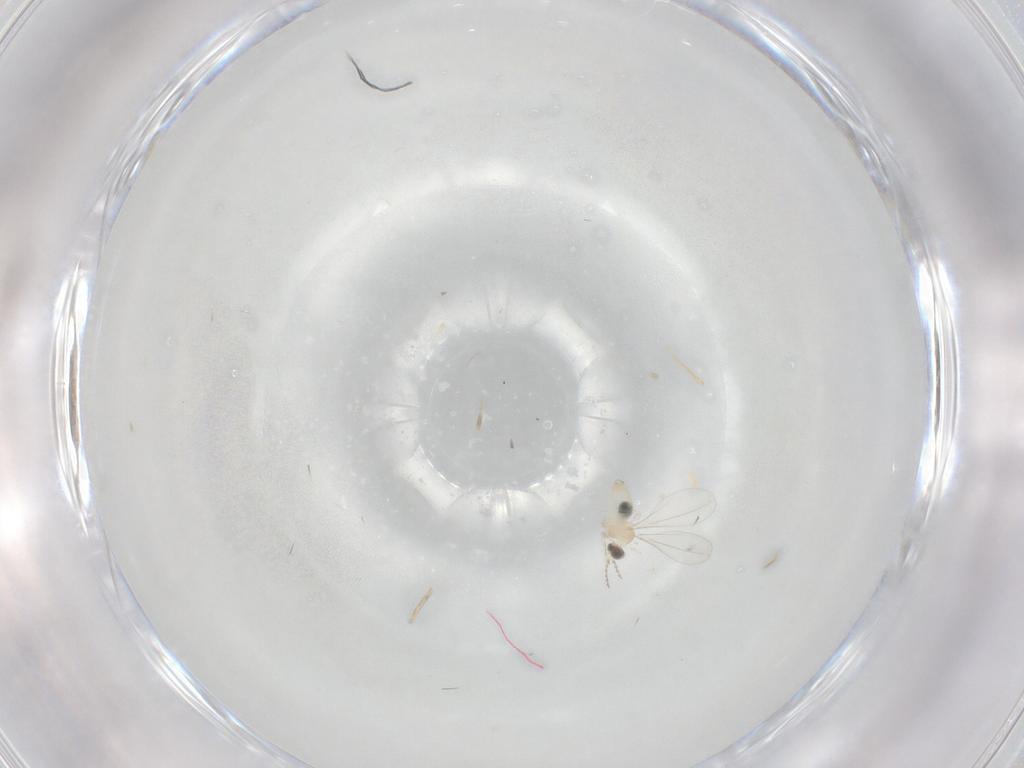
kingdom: Animalia
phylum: Arthropoda
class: Insecta
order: Diptera
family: Cecidomyiidae
